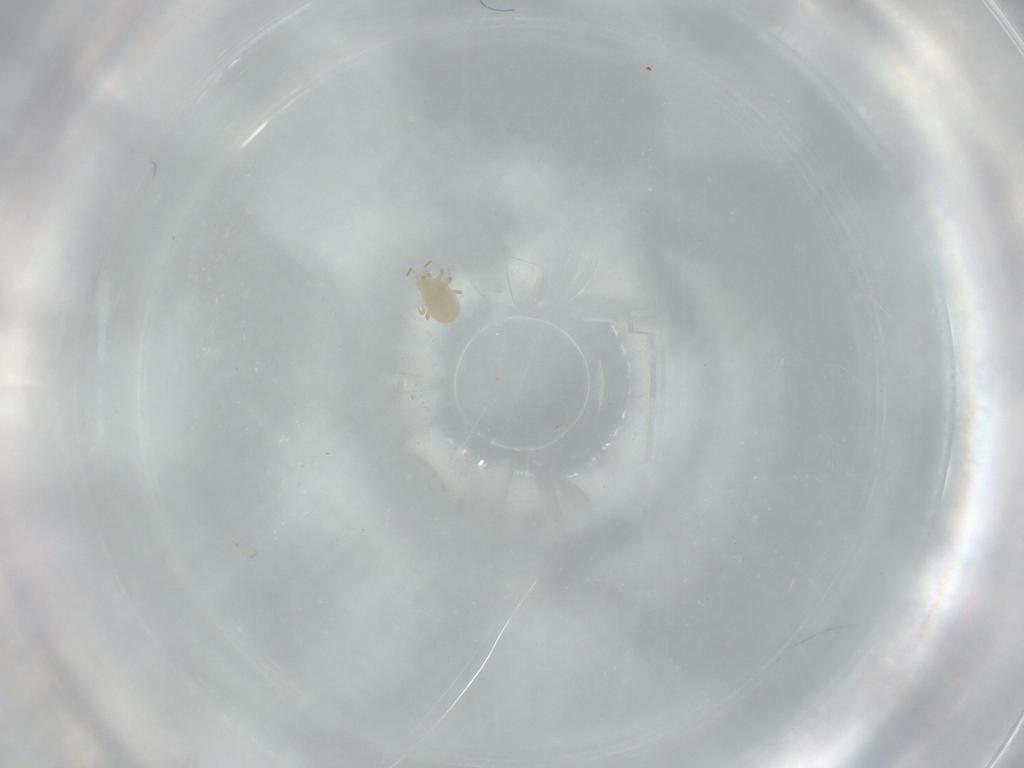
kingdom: Animalia
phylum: Arthropoda
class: Arachnida
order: Mesostigmata
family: Blattisociidae
